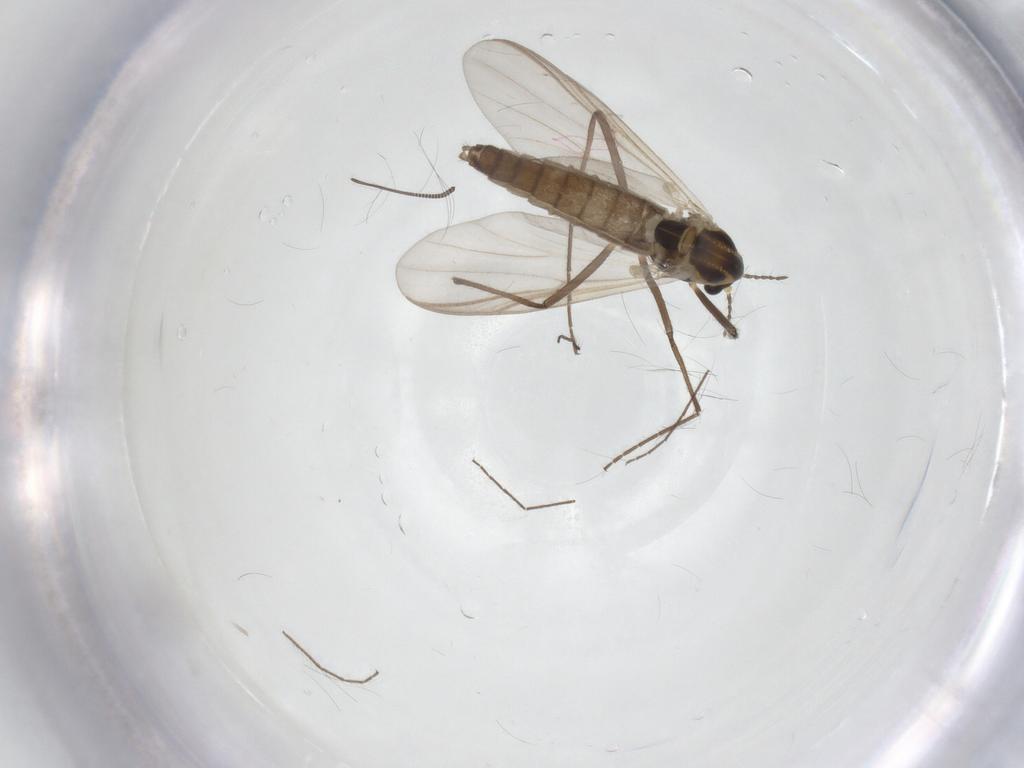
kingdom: Animalia
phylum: Arthropoda
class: Insecta
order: Diptera
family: Chironomidae
